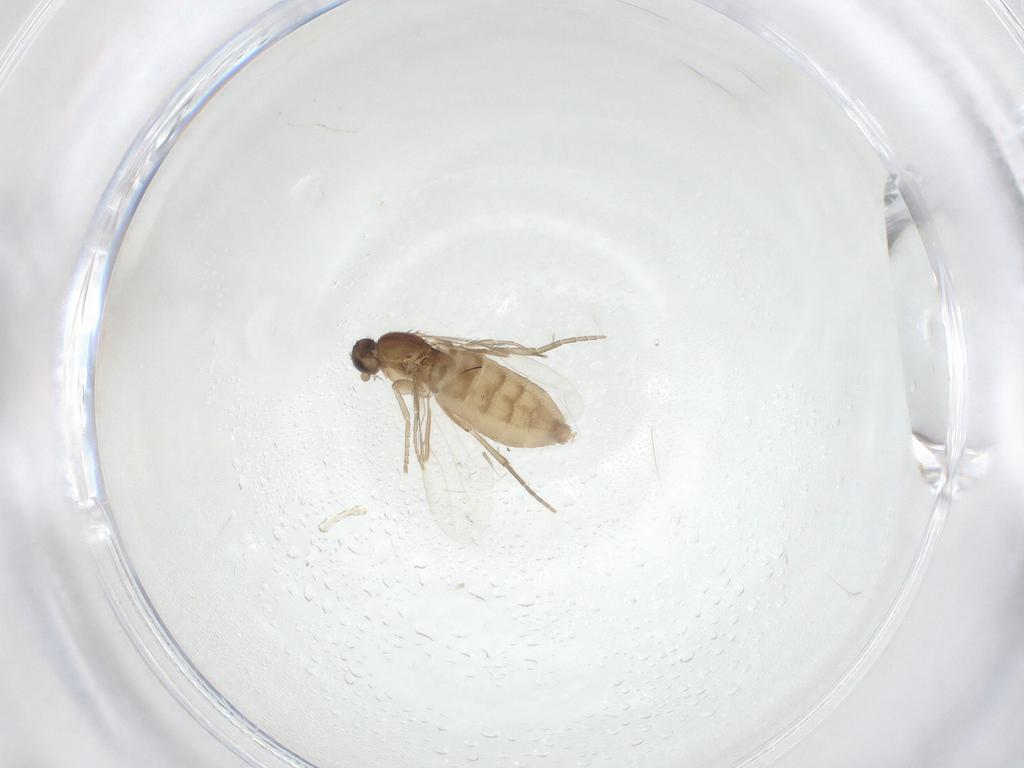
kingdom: Animalia
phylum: Arthropoda
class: Insecta
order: Diptera
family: Phoridae
